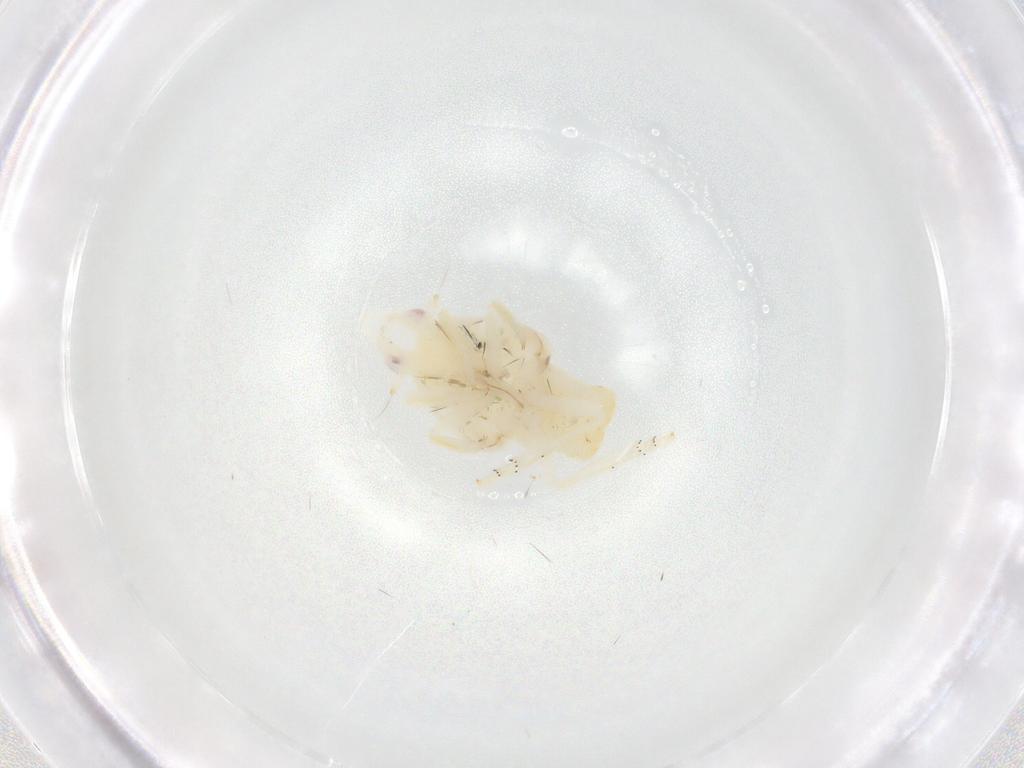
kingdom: Animalia
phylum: Arthropoda
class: Insecta
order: Hemiptera
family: Fulgoroidea_incertae_sedis
